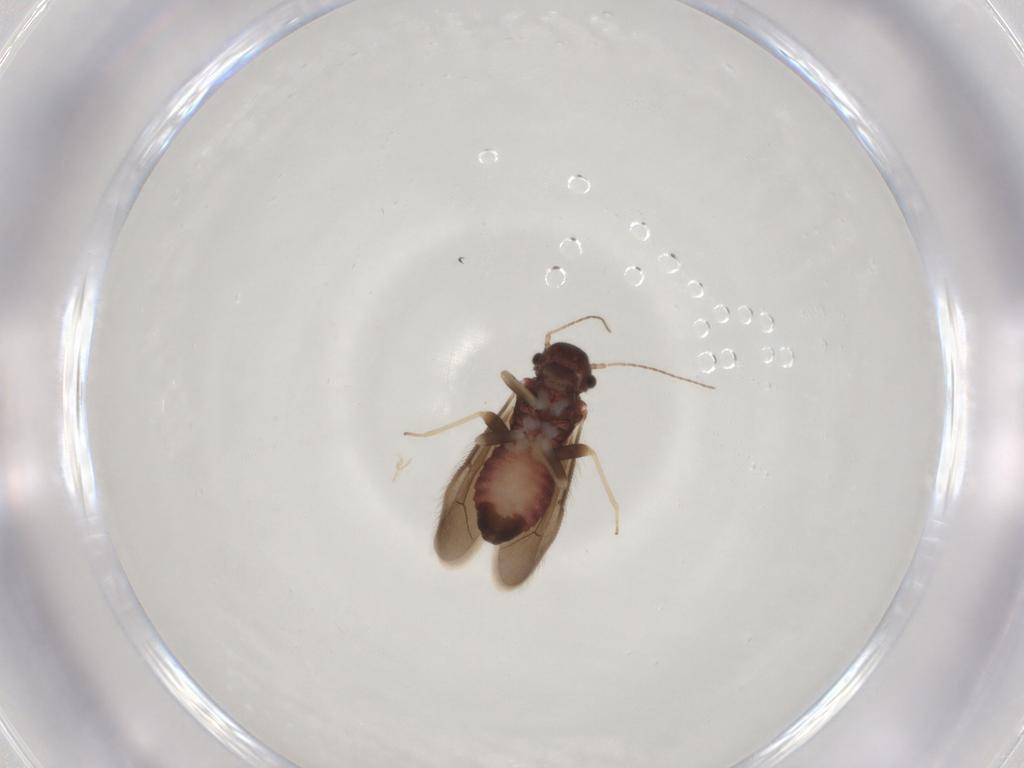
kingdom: Animalia
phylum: Arthropoda
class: Insecta
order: Psocodea
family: Archipsocidae
